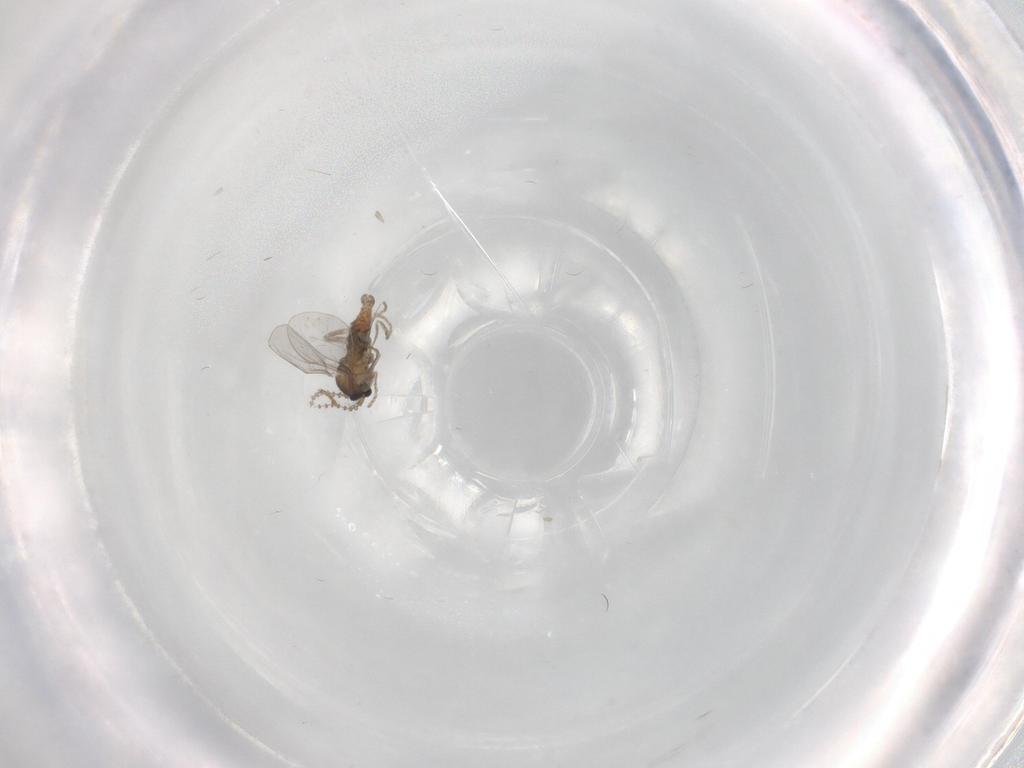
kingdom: Animalia
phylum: Arthropoda
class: Insecta
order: Diptera
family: Cecidomyiidae
